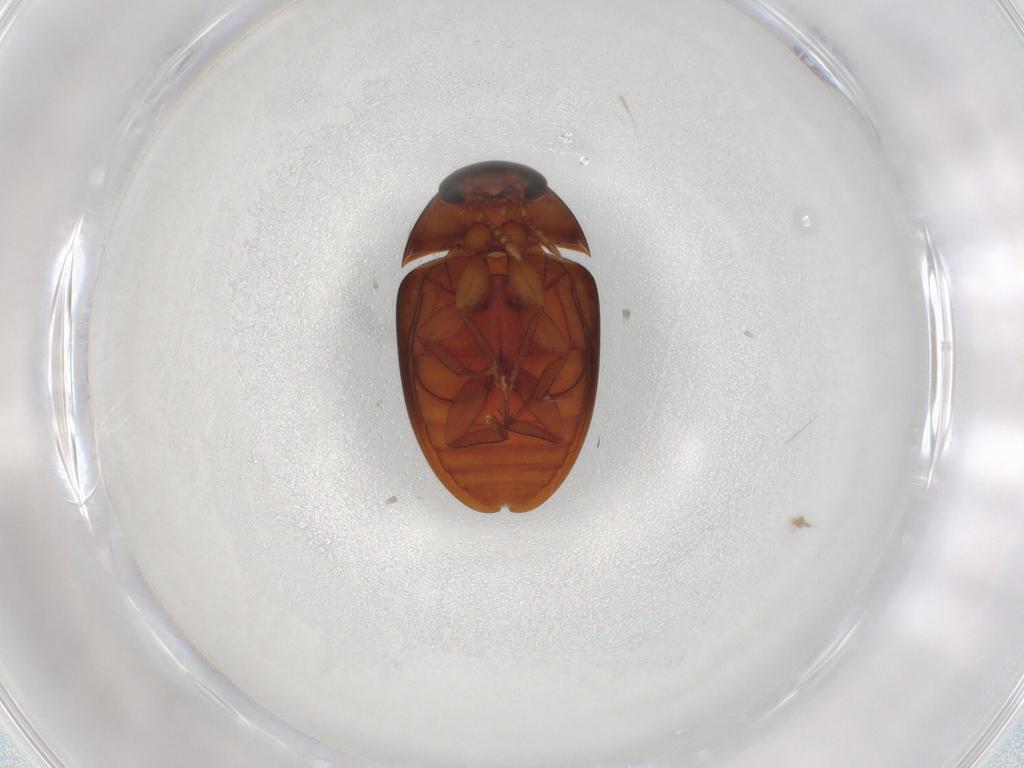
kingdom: Animalia
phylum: Arthropoda
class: Insecta
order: Coleoptera
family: Phalacridae
